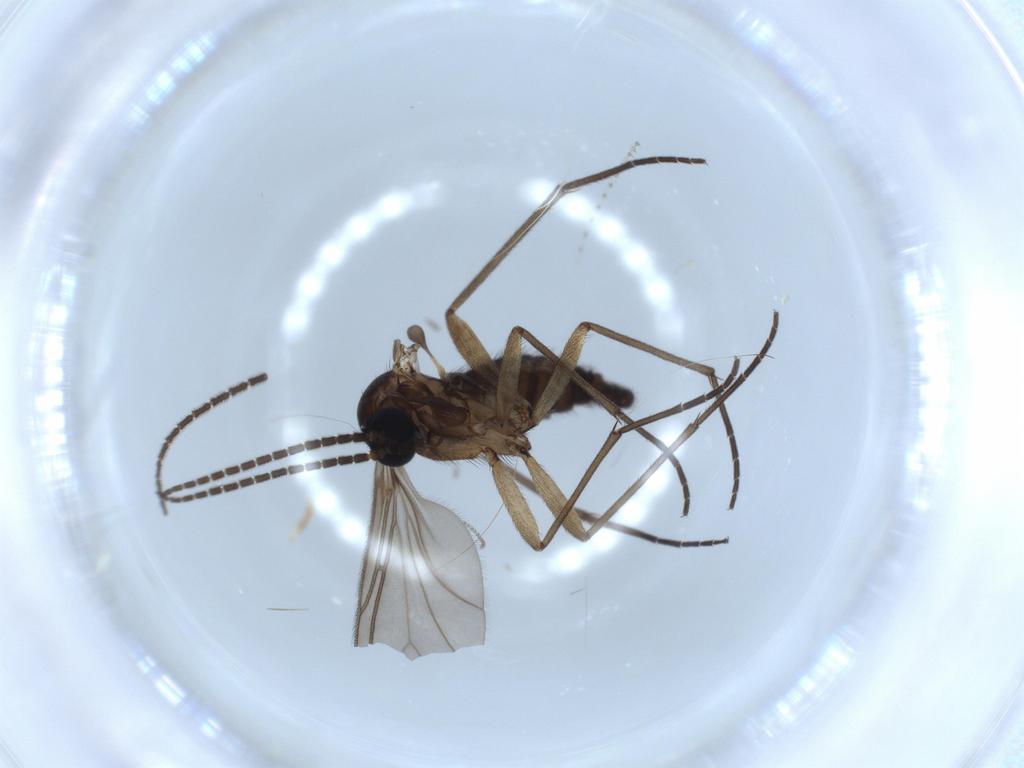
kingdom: Animalia
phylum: Arthropoda
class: Insecta
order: Diptera
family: Sciaridae
